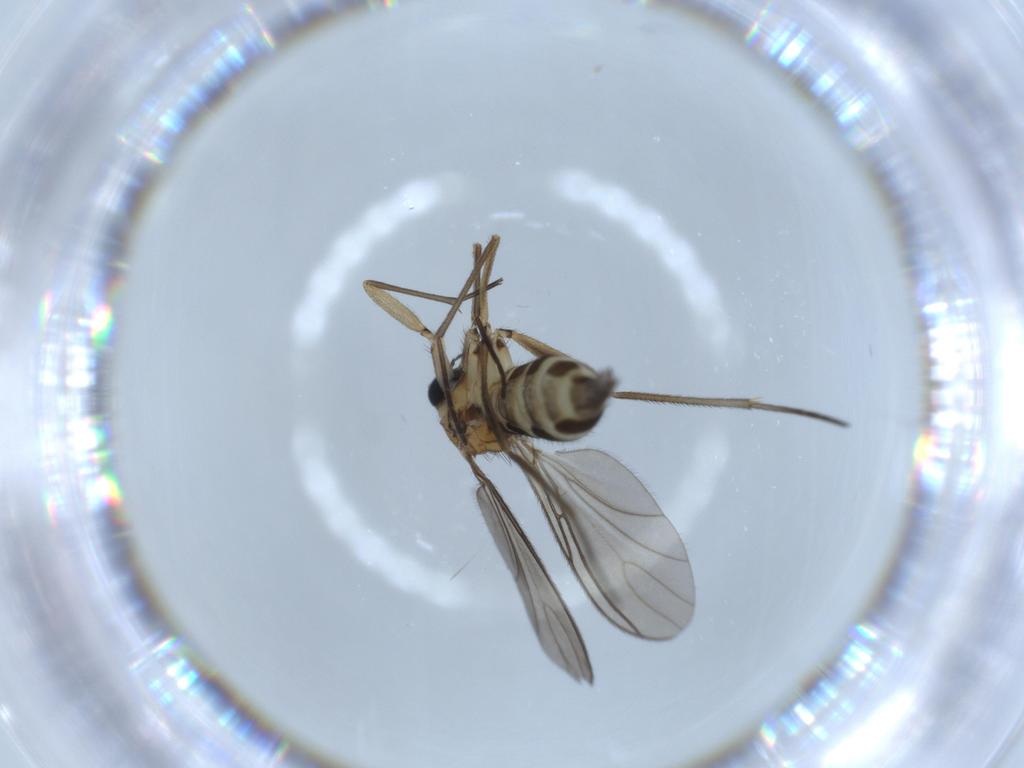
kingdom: Animalia
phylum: Arthropoda
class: Insecta
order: Diptera
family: Sciaridae
